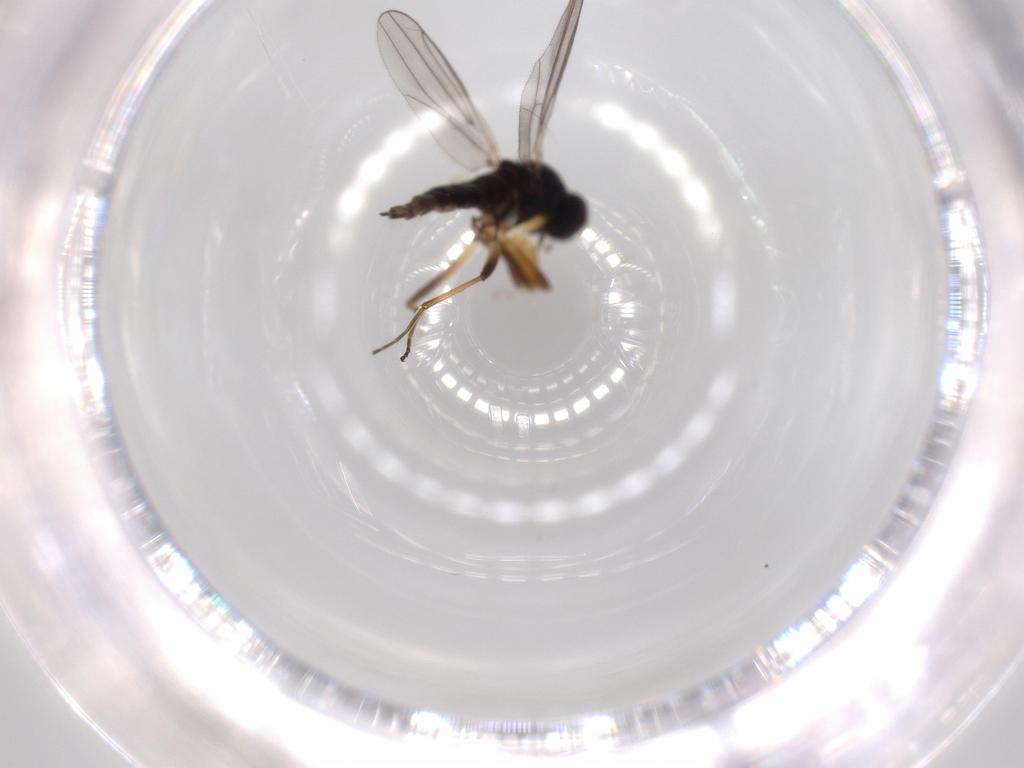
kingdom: Animalia
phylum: Arthropoda
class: Insecta
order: Diptera
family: Hybotidae
